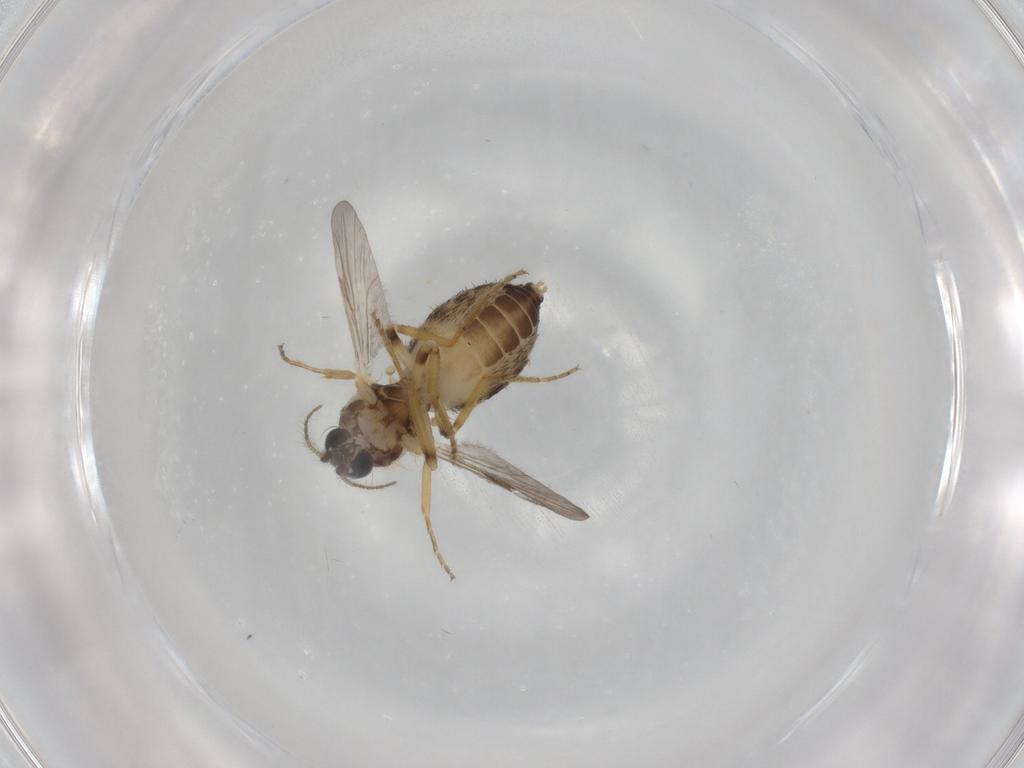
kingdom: Animalia
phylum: Arthropoda
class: Insecta
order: Diptera
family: Ceratopogonidae
